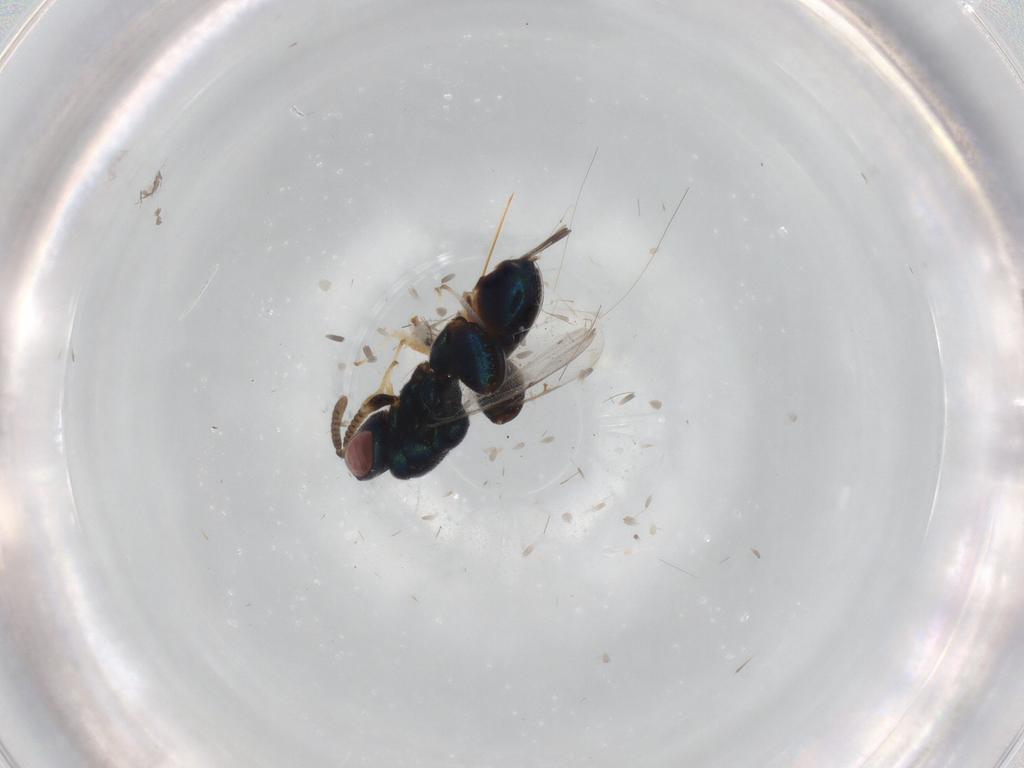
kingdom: Animalia
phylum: Arthropoda
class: Insecta
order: Hymenoptera
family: Torymidae
